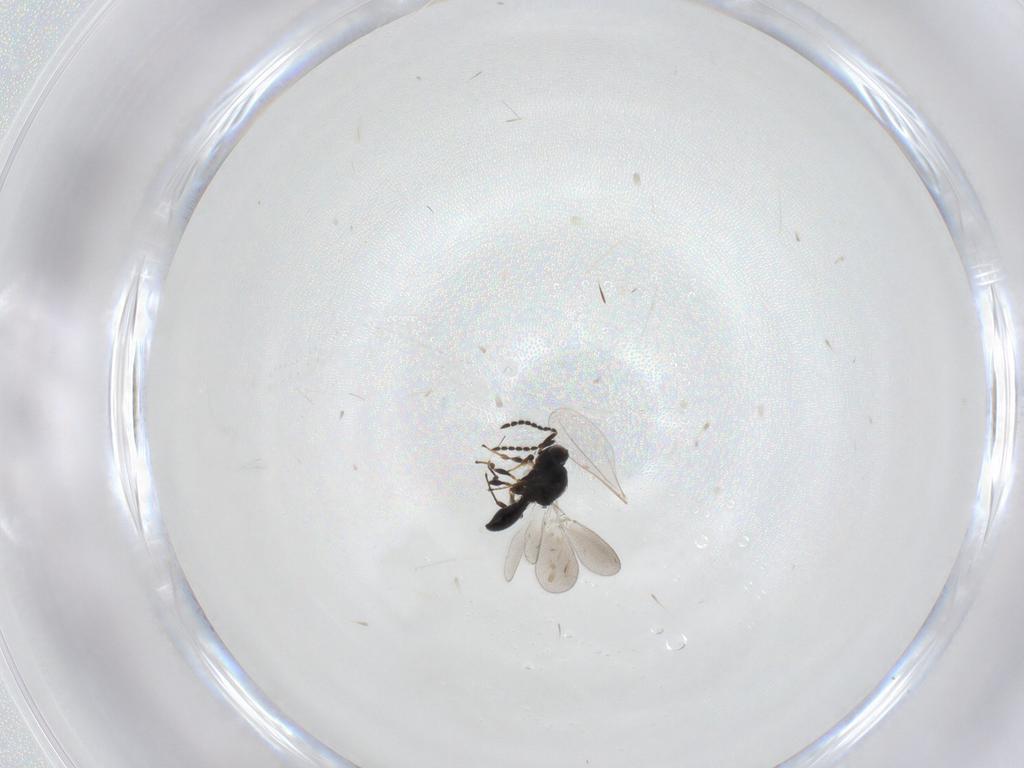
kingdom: Animalia
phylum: Arthropoda
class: Insecta
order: Hymenoptera
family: Platygastridae
